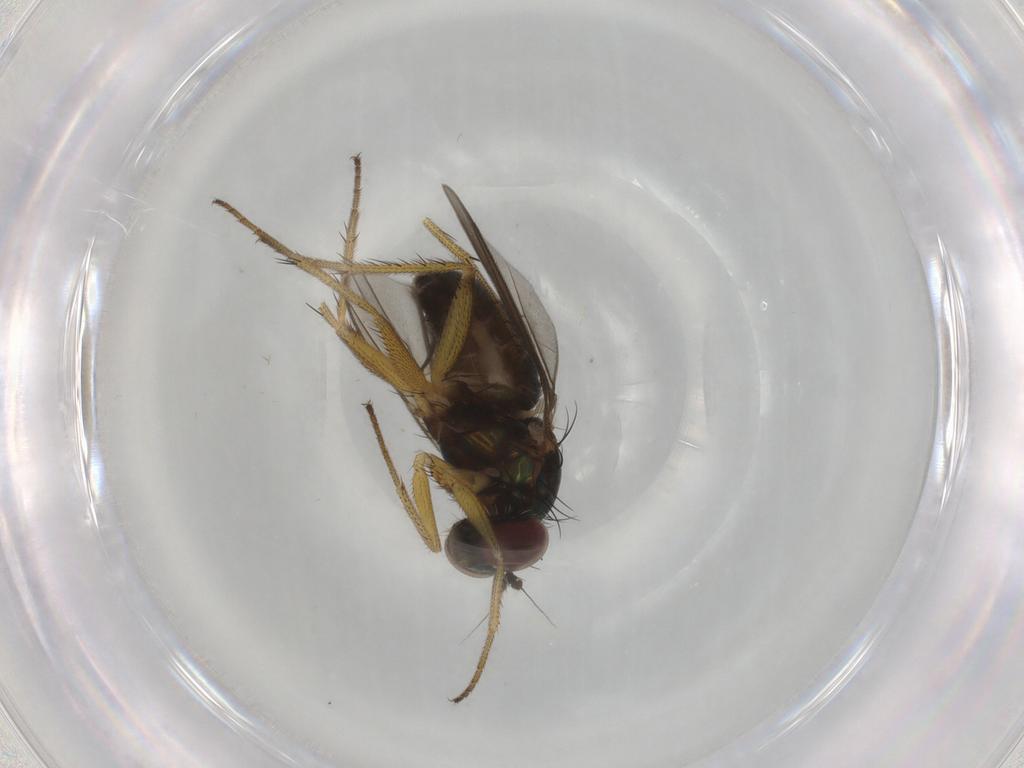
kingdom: Animalia
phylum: Arthropoda
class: Insecta
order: Diptera
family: Dolichopodidae
